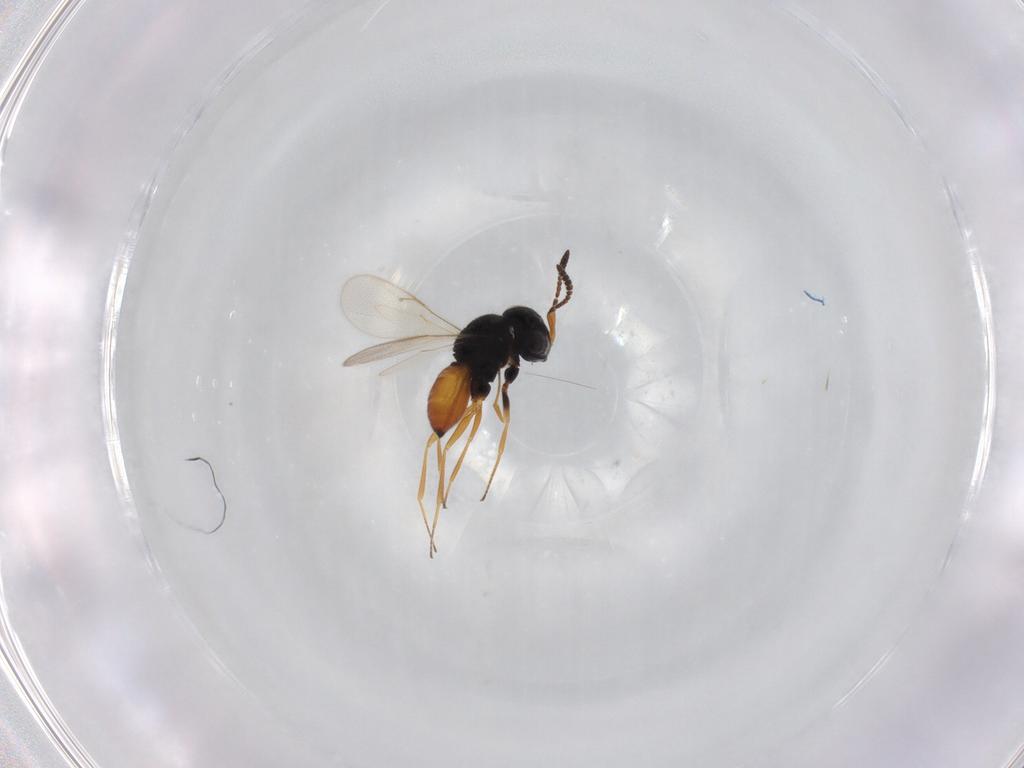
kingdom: Animalia
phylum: Arthropoda
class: Insecta
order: Hymenoptera
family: Scelionidae
